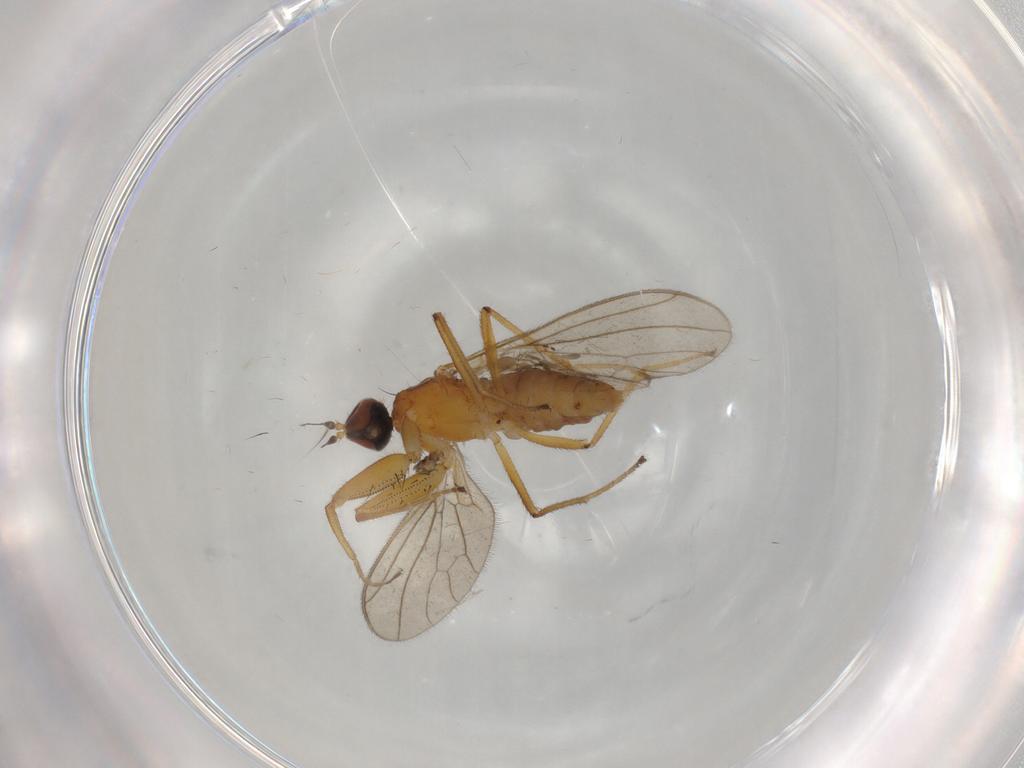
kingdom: Animalia
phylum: Arthropoda
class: Insecta
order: Diptera
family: Empididae
